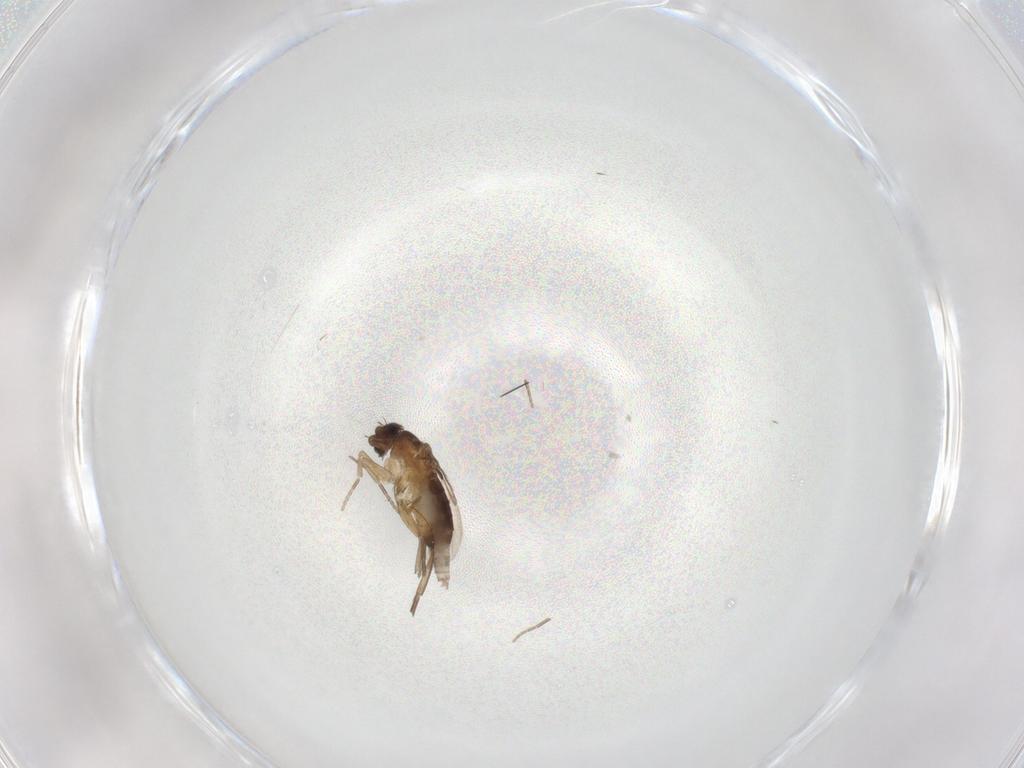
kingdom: Animalia
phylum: Arthropoda
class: Insecta
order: Diptera
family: Phoridae
